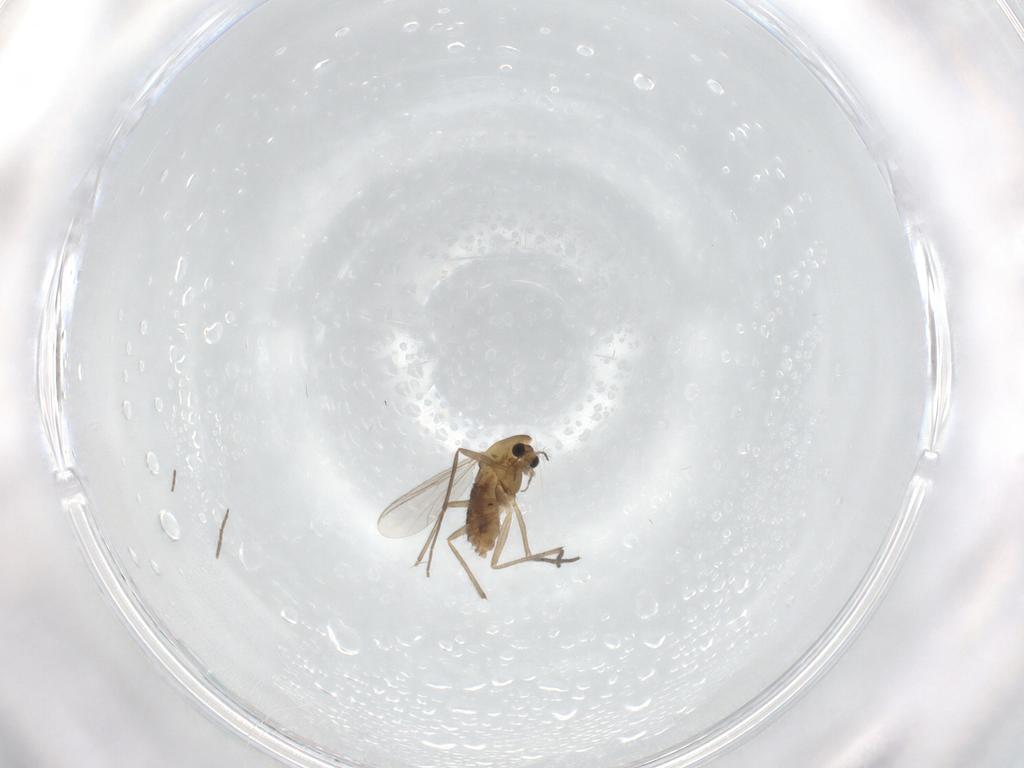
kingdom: Animalia
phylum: Arthropoda
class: Insecta
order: Diptera
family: Chironomidae
